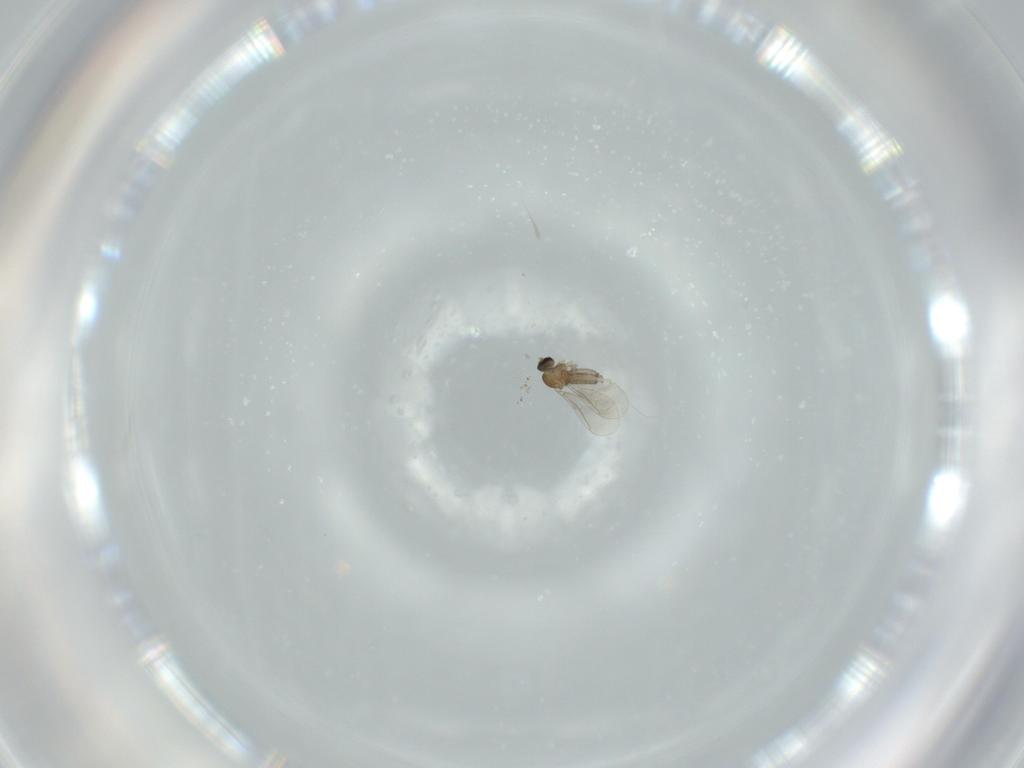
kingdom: Animalia
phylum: Arthropoda
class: Insecta
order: Diptera
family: Cecidomyiidae
